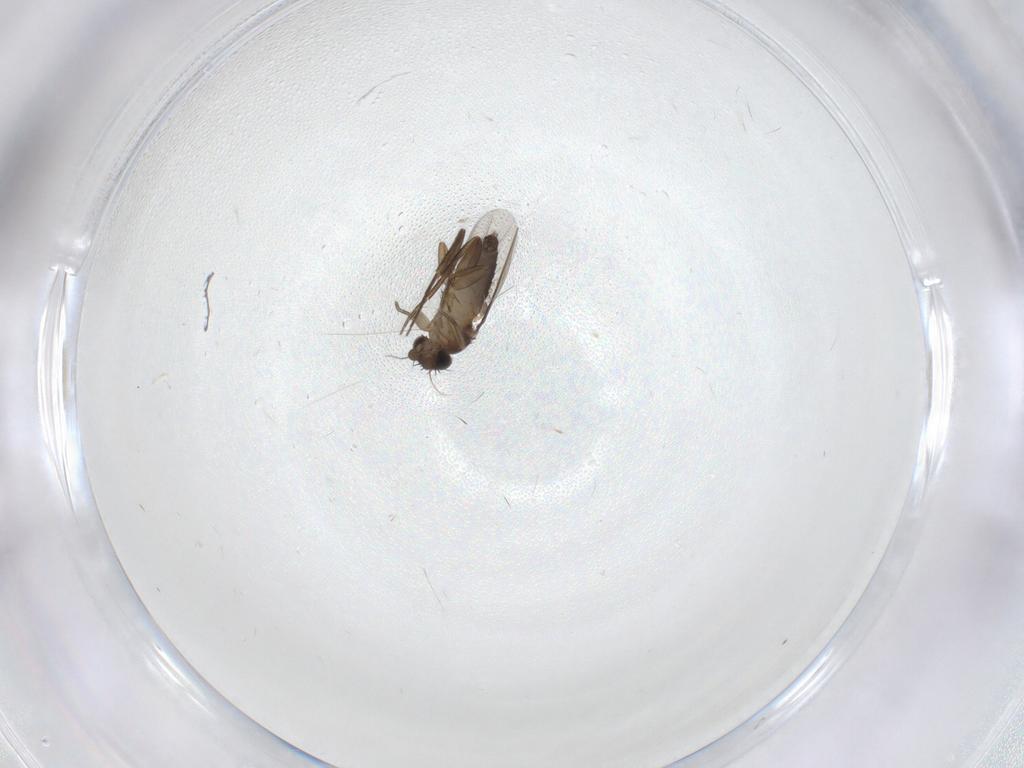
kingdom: Animalia
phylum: Arthropoda
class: Insecta
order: Diptera
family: Phoridae
